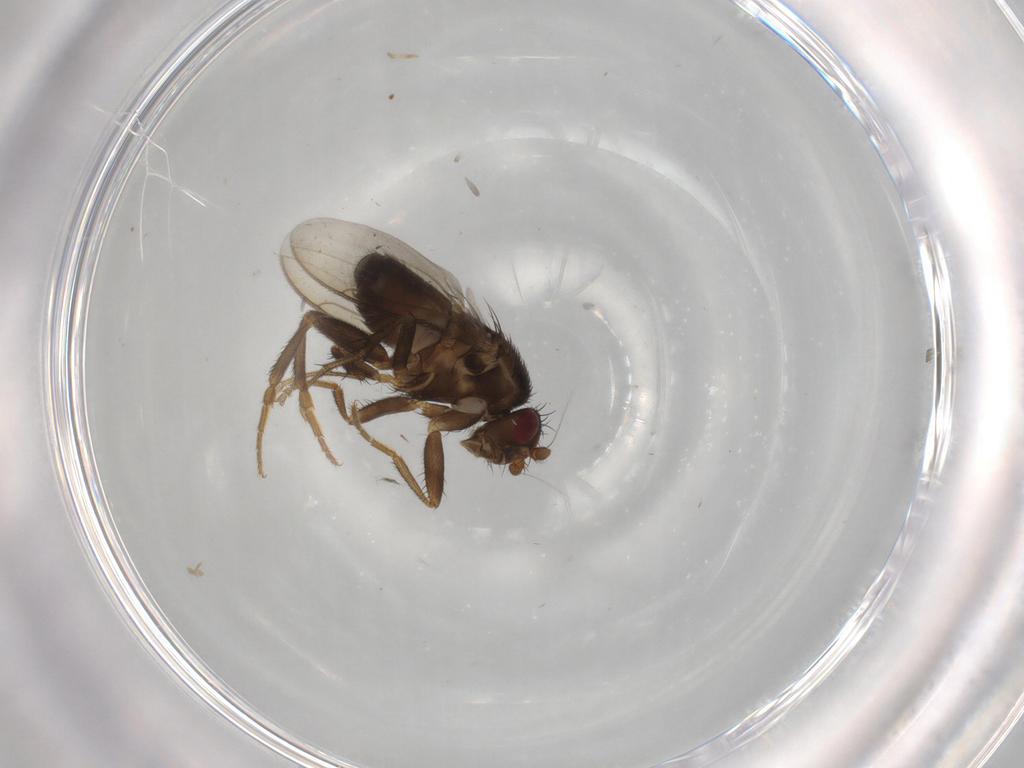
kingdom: Animalia
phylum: Arthropoda
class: Insecta
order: Diptera
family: Sphaeroceridae
